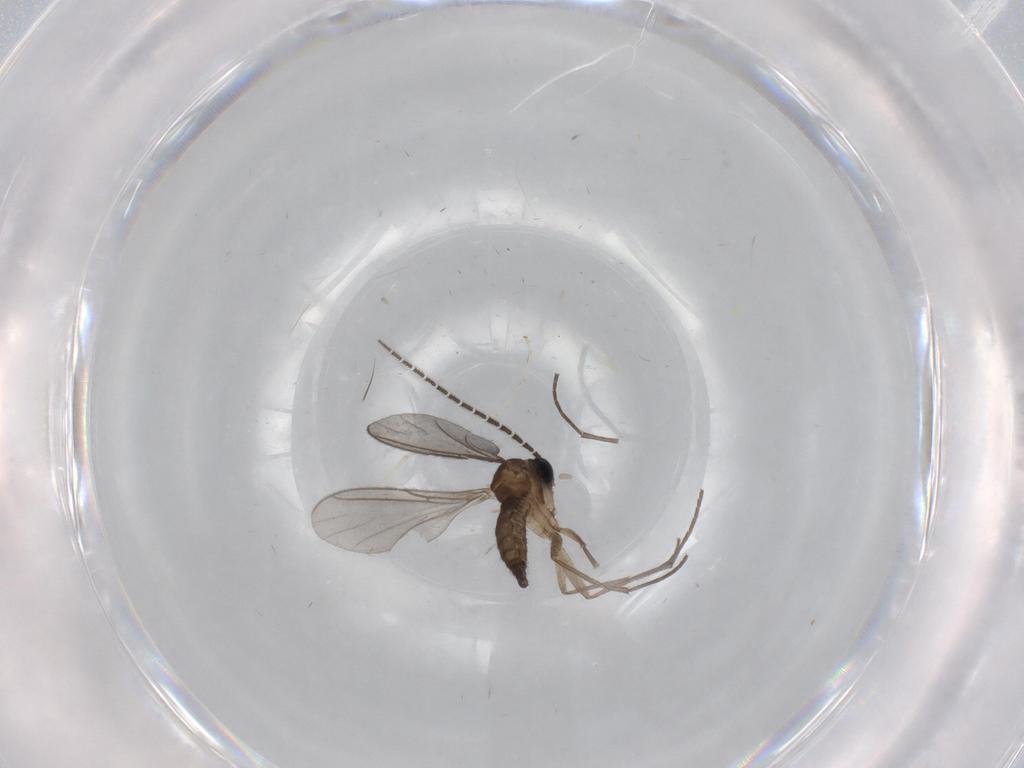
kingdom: Animalia
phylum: Arthropoda
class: Insecta
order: Diptera
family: Sciaridae
